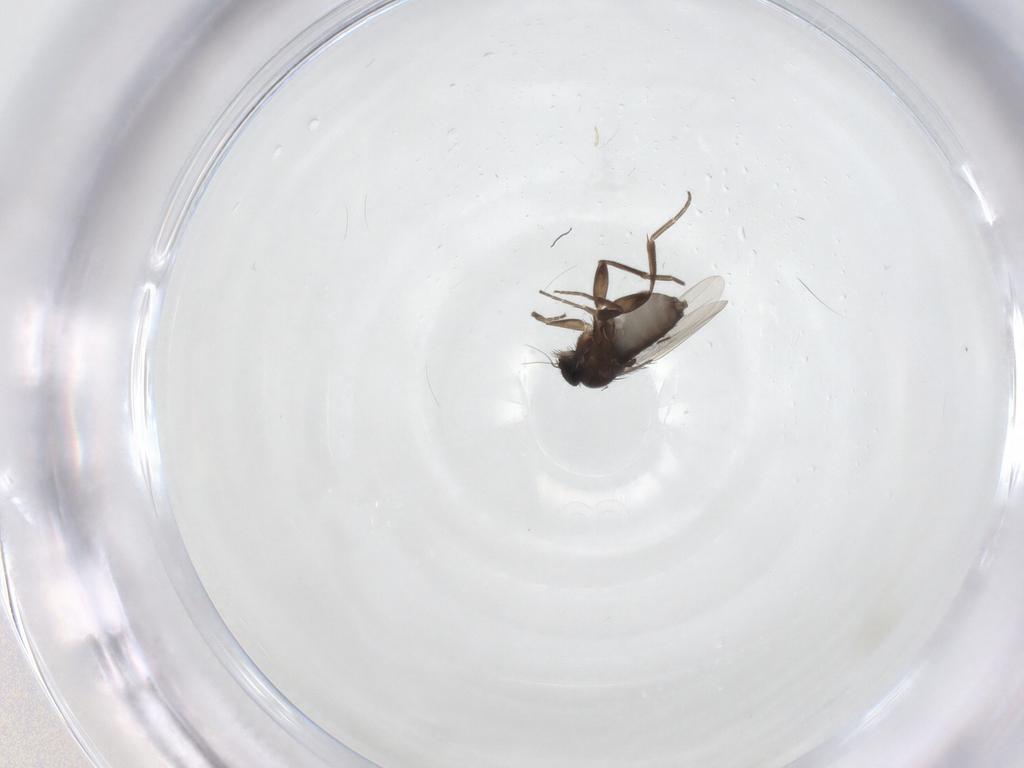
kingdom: Animalia
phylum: Arthropoda
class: Insecta
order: Diptera
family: Phoridae
